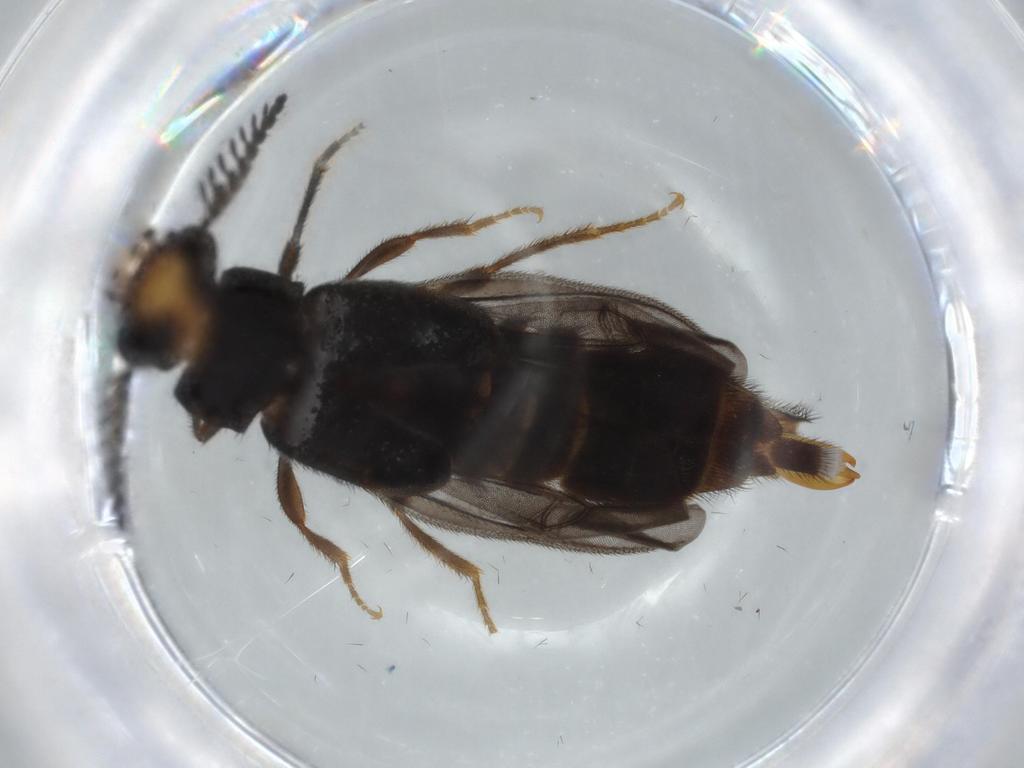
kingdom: Animalia
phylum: Arthropoda
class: Insecta
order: Coleoptera
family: Phengodidae
